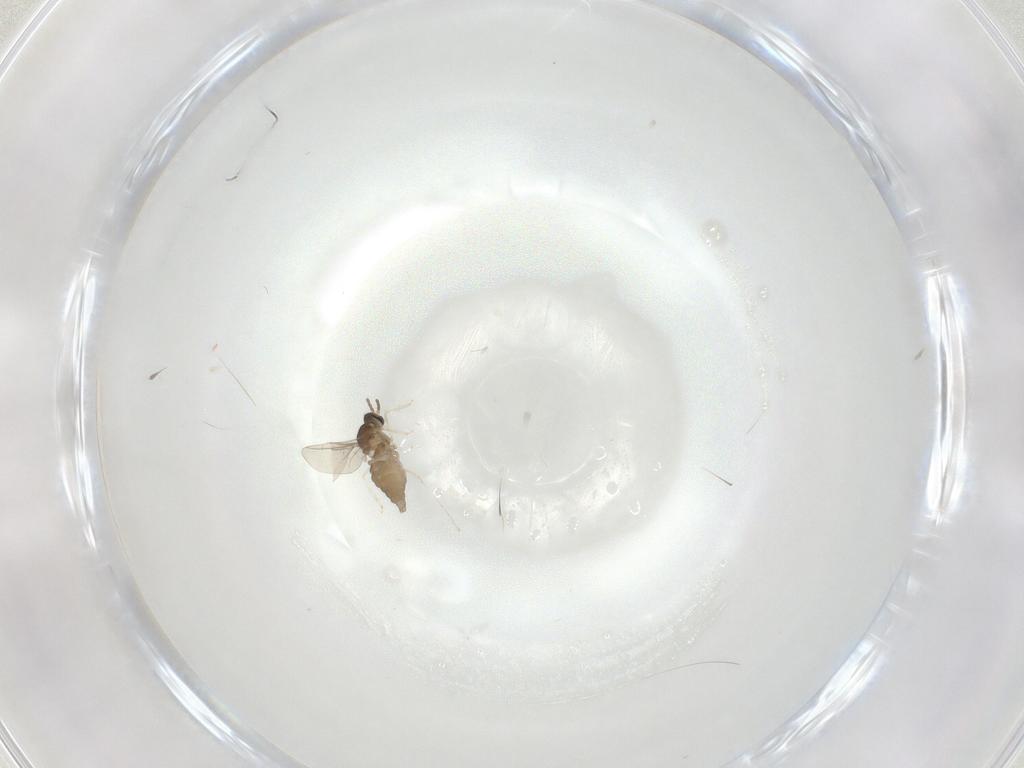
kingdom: Animalia
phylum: Arthropoda
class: Insecta
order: Diptera
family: Cecidomyiidae
